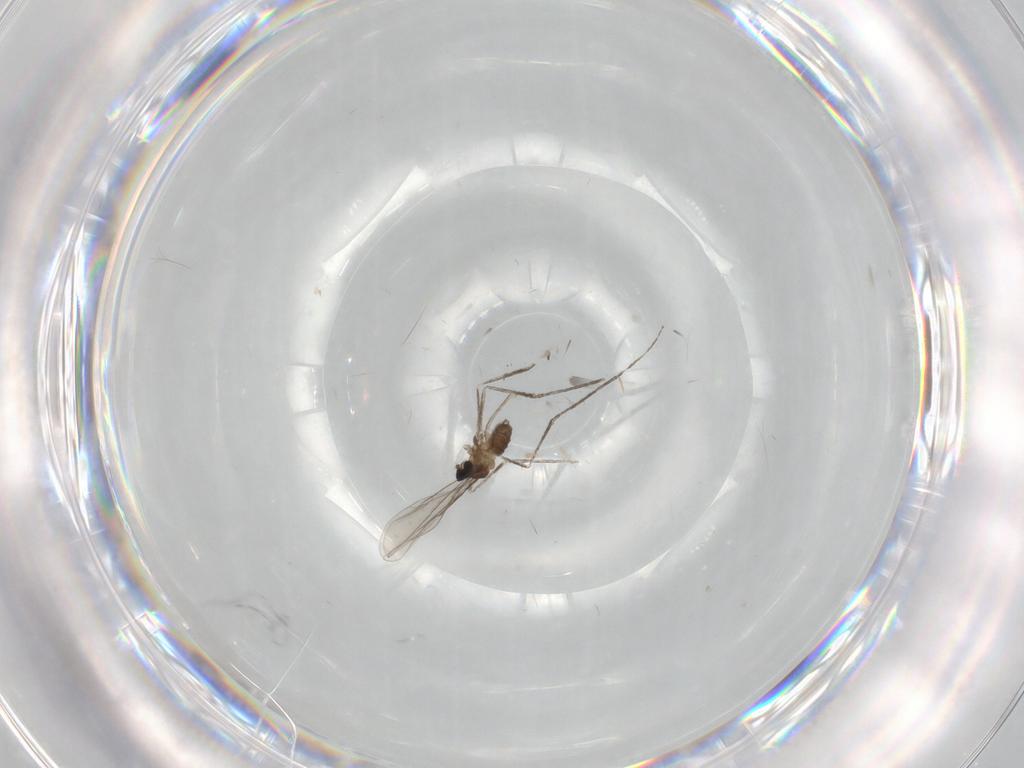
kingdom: Animalia
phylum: Arthropoda
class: Insecta
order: Diptera
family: Cecidomyiidae
